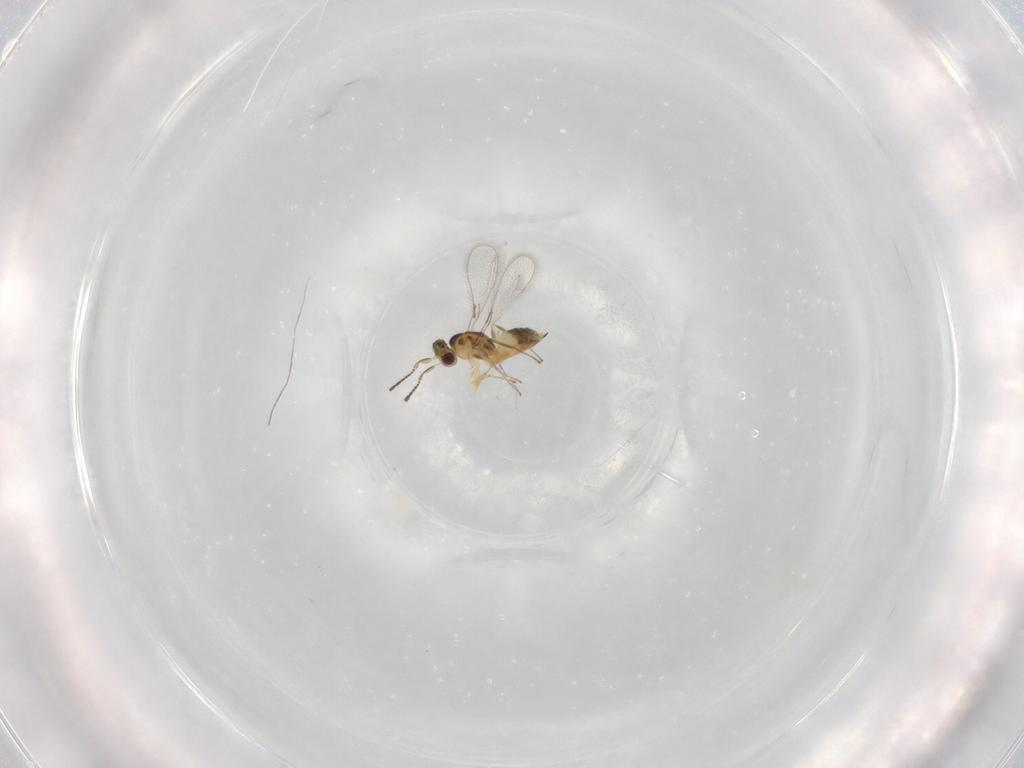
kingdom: Animalia
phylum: Arthropoda
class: Insecta
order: Hymenoptera
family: Mymaridae
